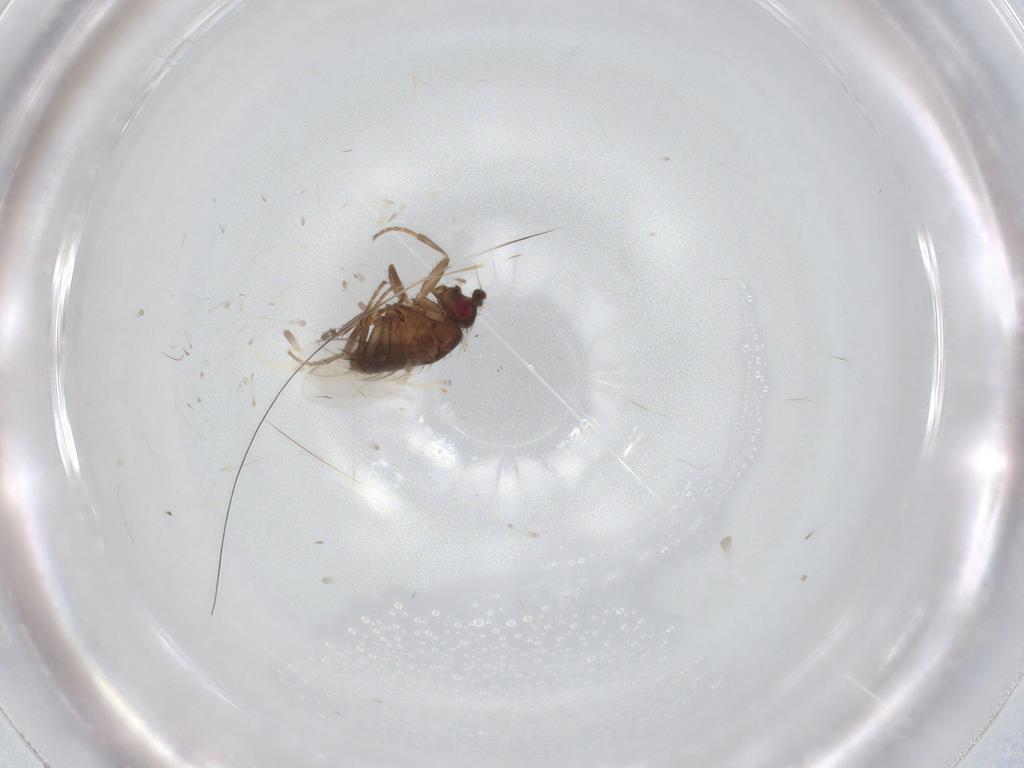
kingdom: Animalia
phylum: Arthropoda
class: Insecta
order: Diptera
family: Sphaeroceridae
